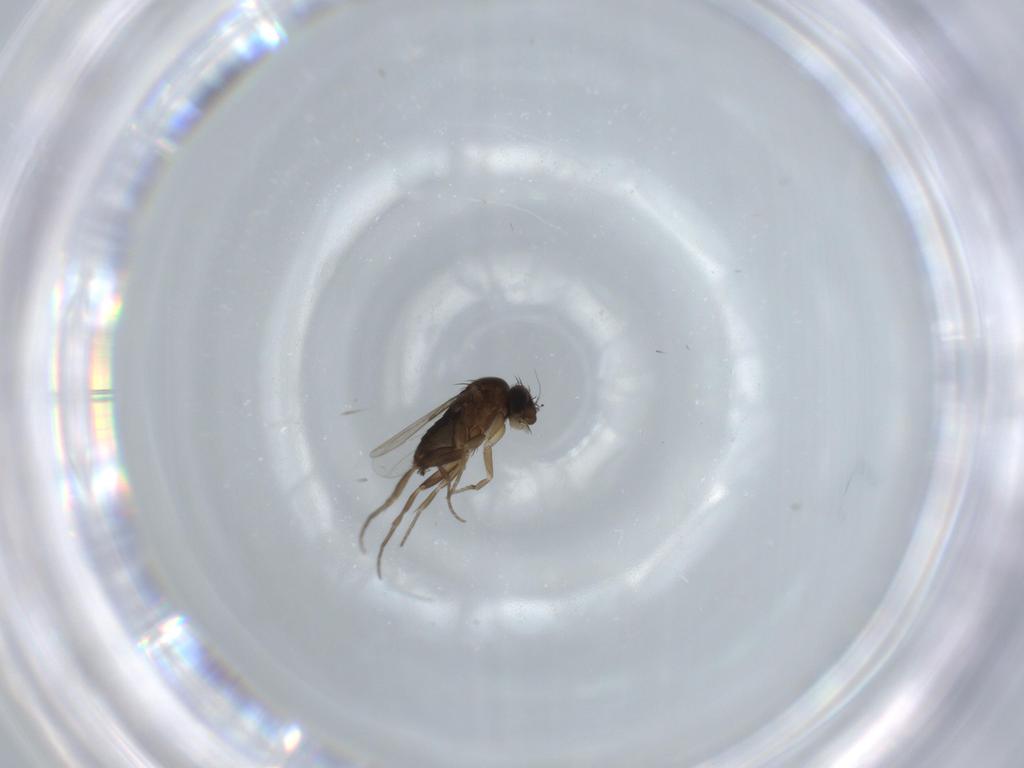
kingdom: Animalia
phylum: Arthropoda
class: Insecta
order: Diptera
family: Phoridae
